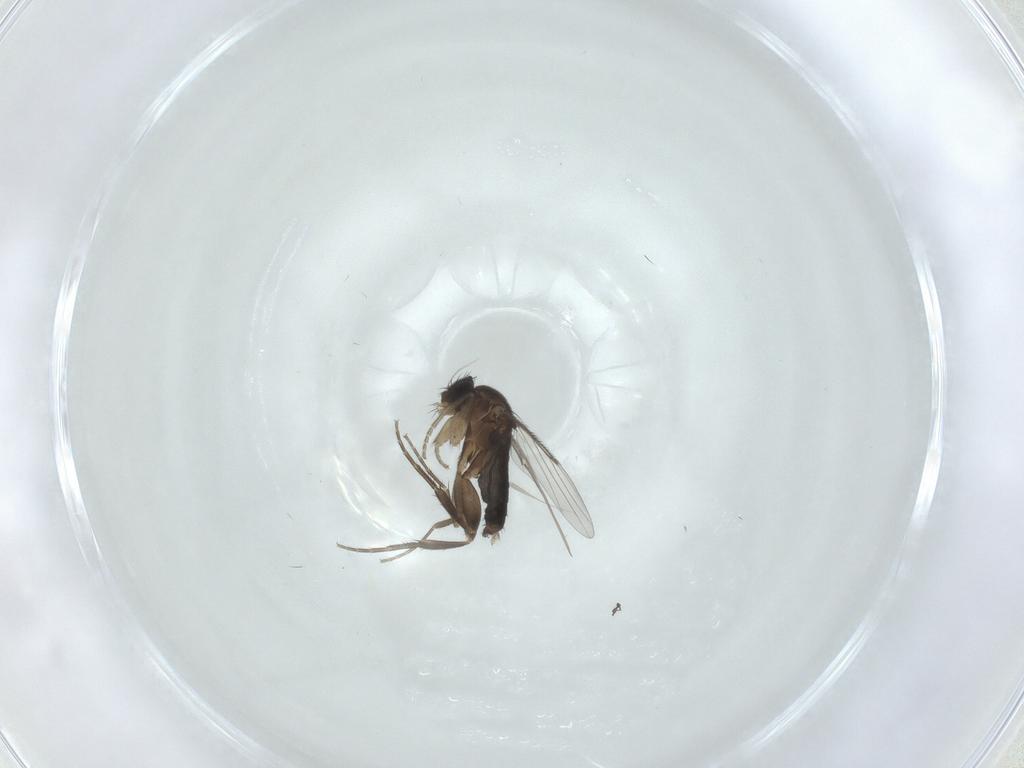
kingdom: Animalia
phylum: Arthropoda
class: Insecta
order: Diptera
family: Phoridae
